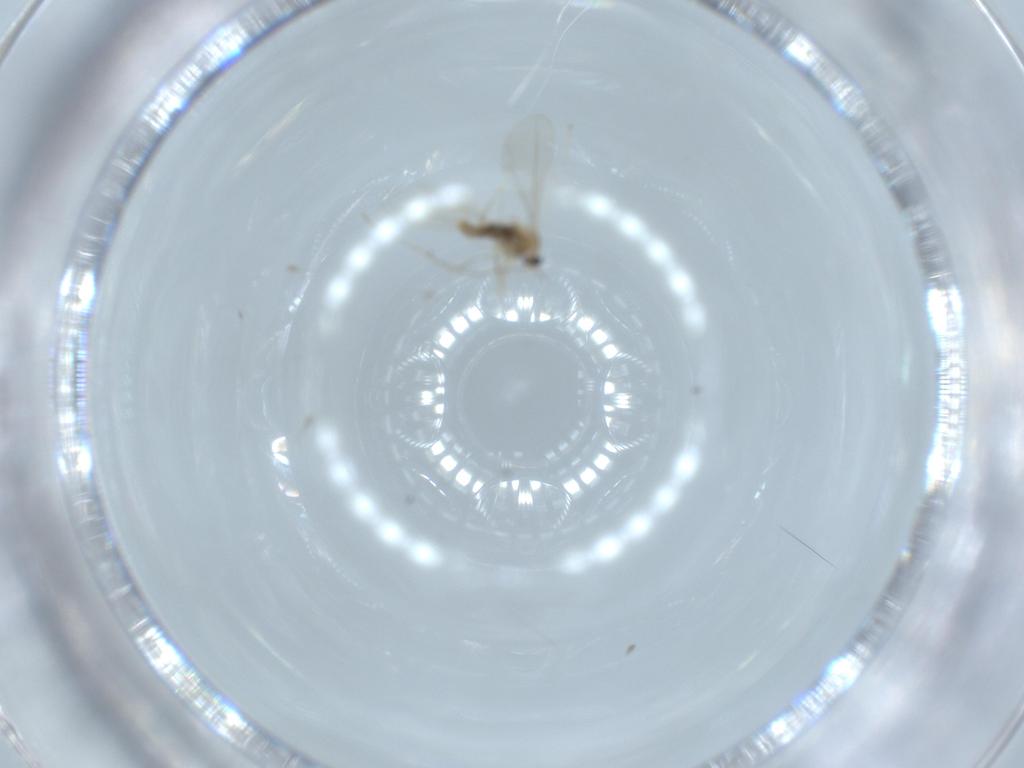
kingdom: Animalia
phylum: Arthropoda
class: Insecta
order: Diptera
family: Cecidomyiidae
